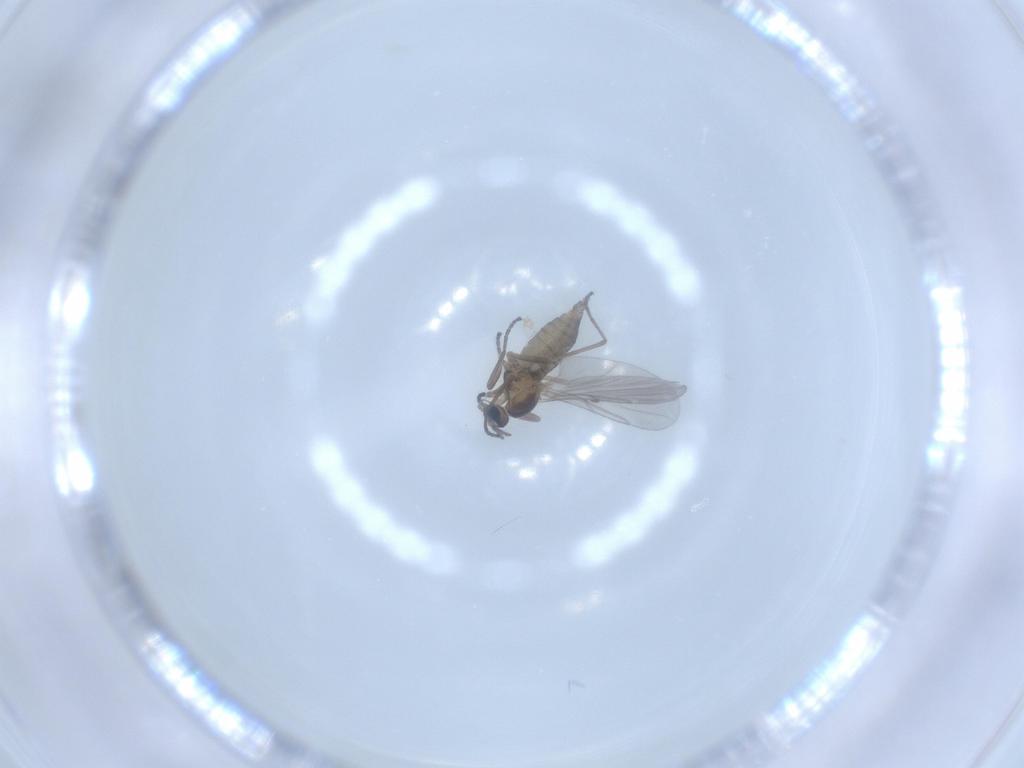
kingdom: Animalia
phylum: Arthropoda
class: Insecta
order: Diptera
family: Cecidomyiidae
